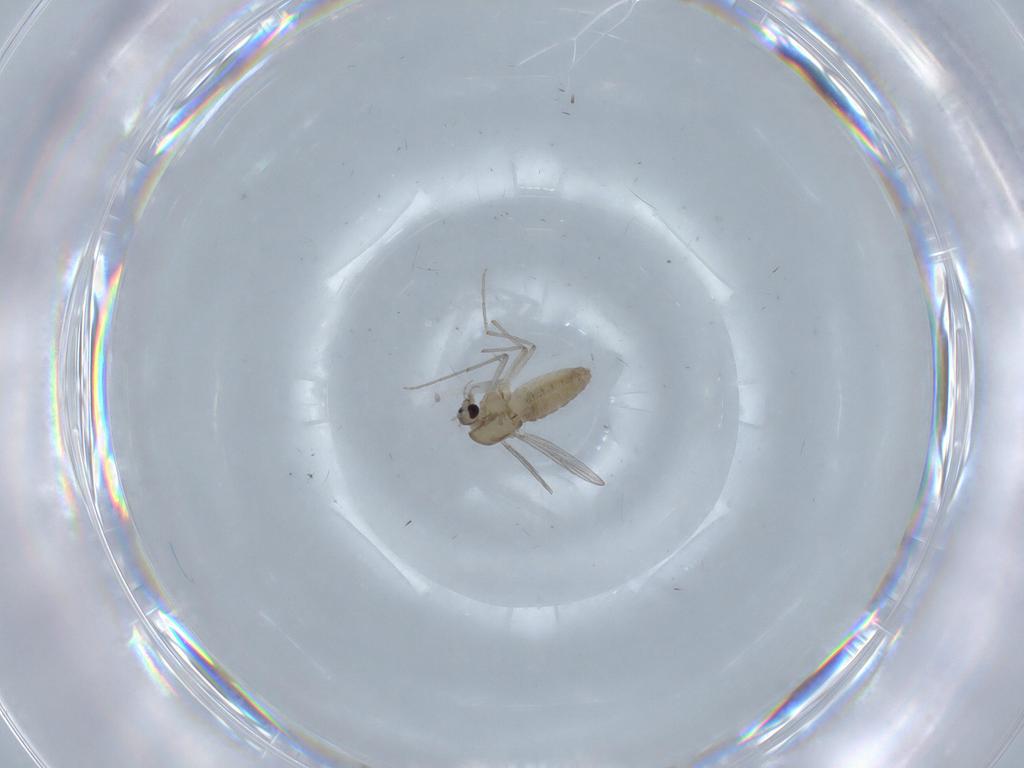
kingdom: Animalia
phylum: Arthropoda
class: Insecta
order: Diptera
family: Chironomidae
